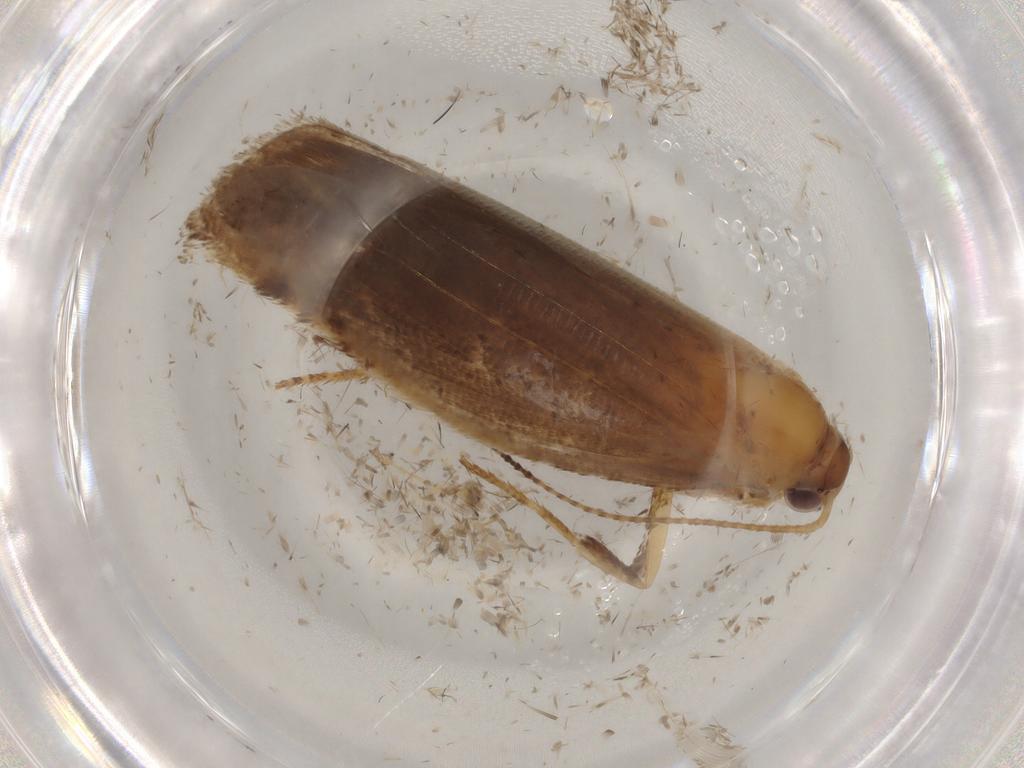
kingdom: Animalia
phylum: Arthropoda
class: Insecta
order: Lepidoptera
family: Gelechiidae
